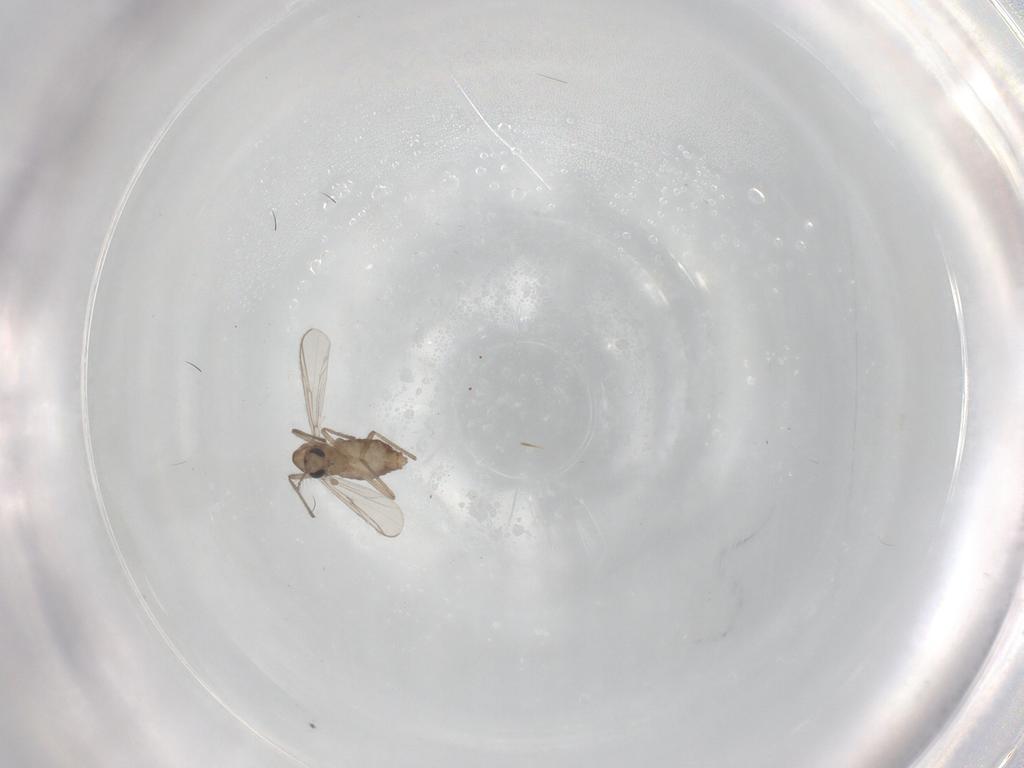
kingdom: Animalia
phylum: Arthropoda
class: Insecta
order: Diptera
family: Chironomidae
